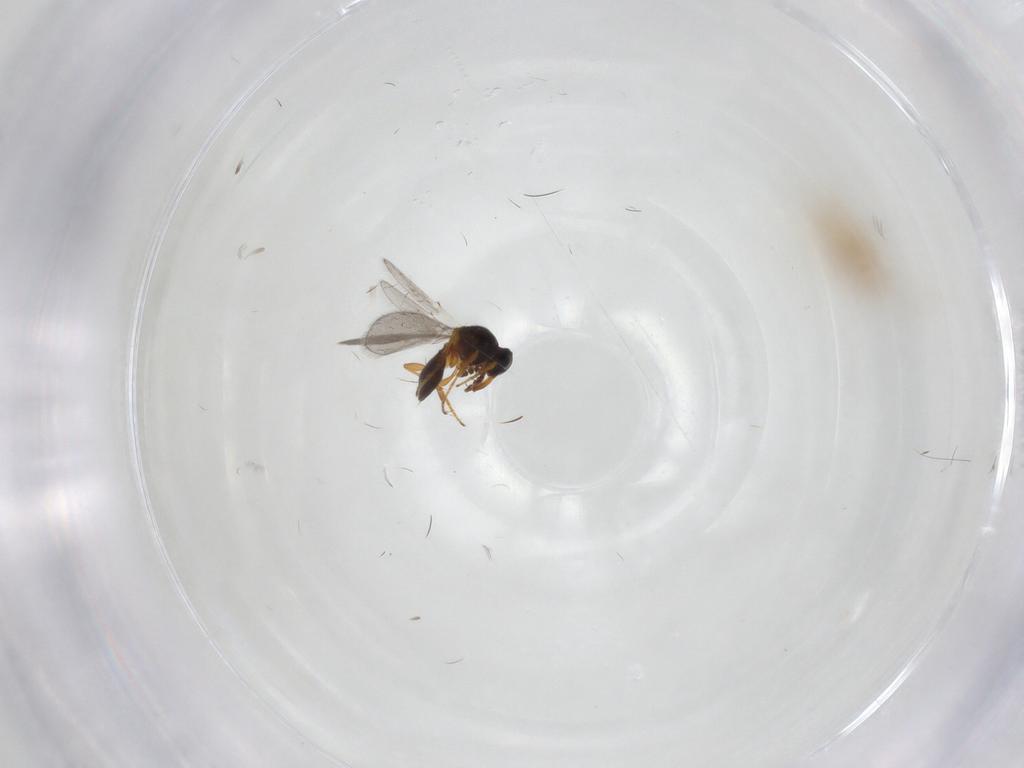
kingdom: Animalia
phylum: Arthropoda
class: Insecta
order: Hymenoptera
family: Platygastridae
